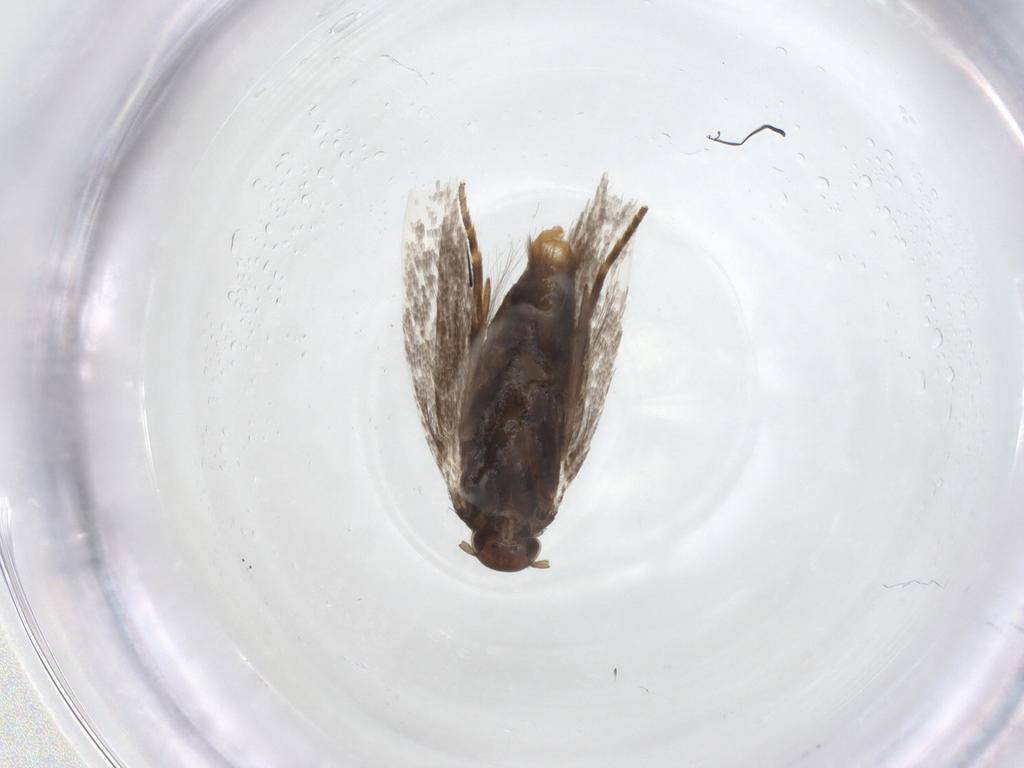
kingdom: Animalia
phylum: Arthropoda
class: Insecta
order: Lepidoptera
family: Elachistidae
